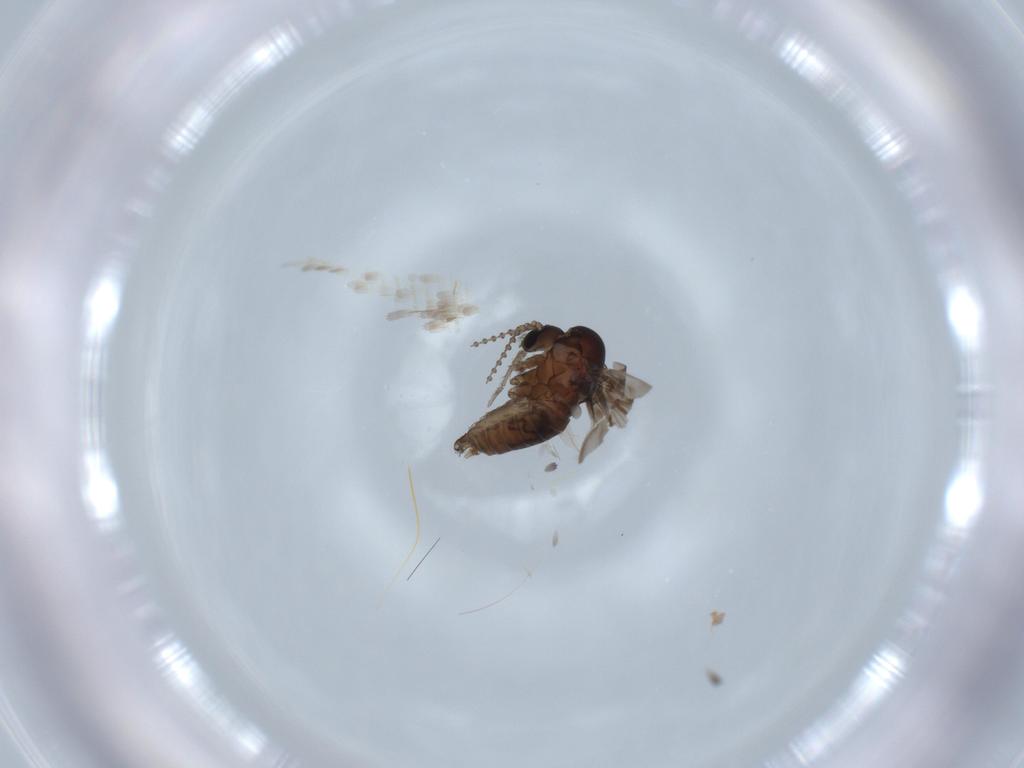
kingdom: Animalia
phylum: Arthropoda
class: Insecta
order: Diptera
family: Psychodidae
